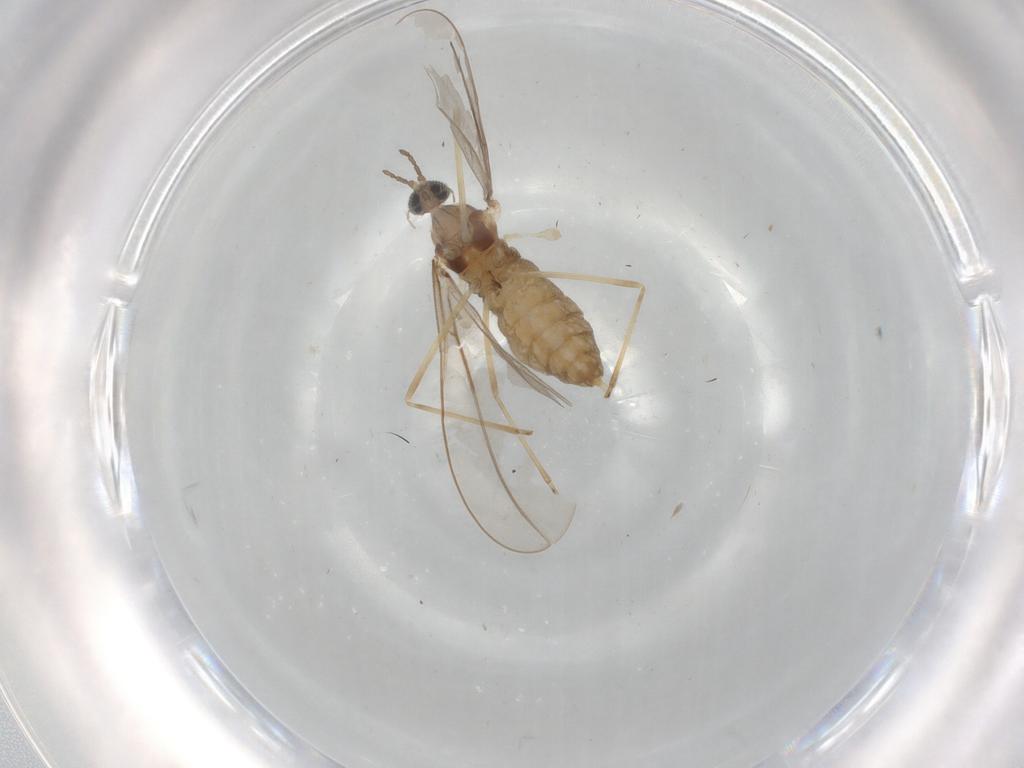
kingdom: Animalia
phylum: Arthropoda
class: Insecta
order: Diptera
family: Cecidomyiidae
